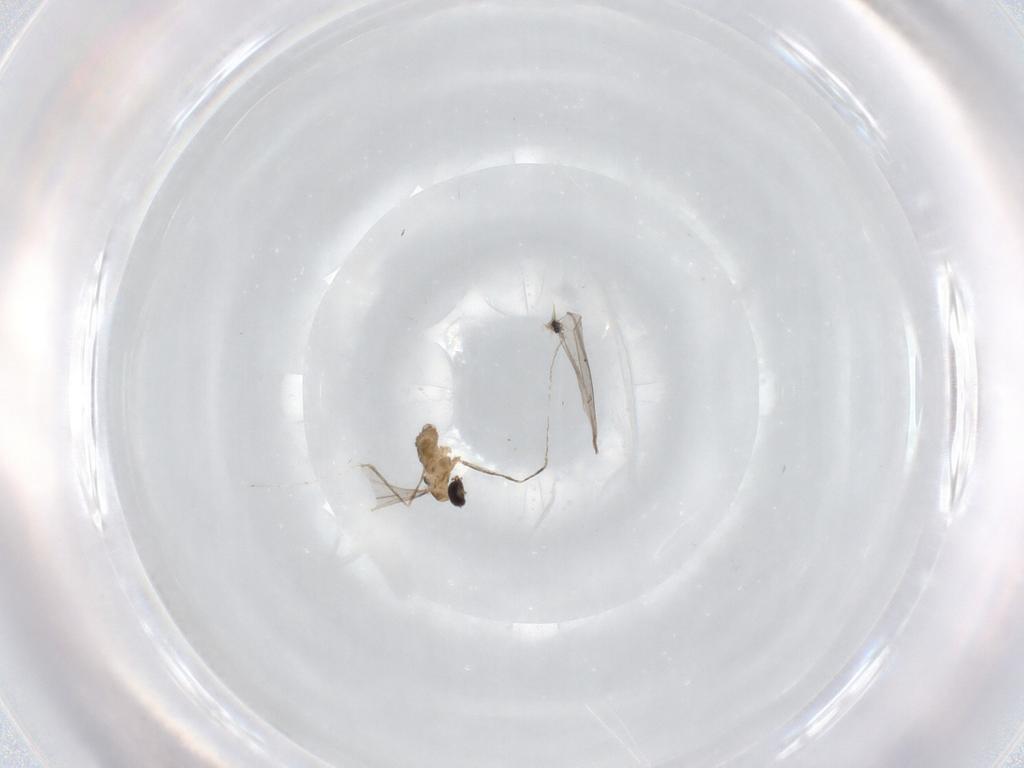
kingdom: Animalia
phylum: Arthropoda
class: Insecta
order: Diptera
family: Cecidomyiidae
